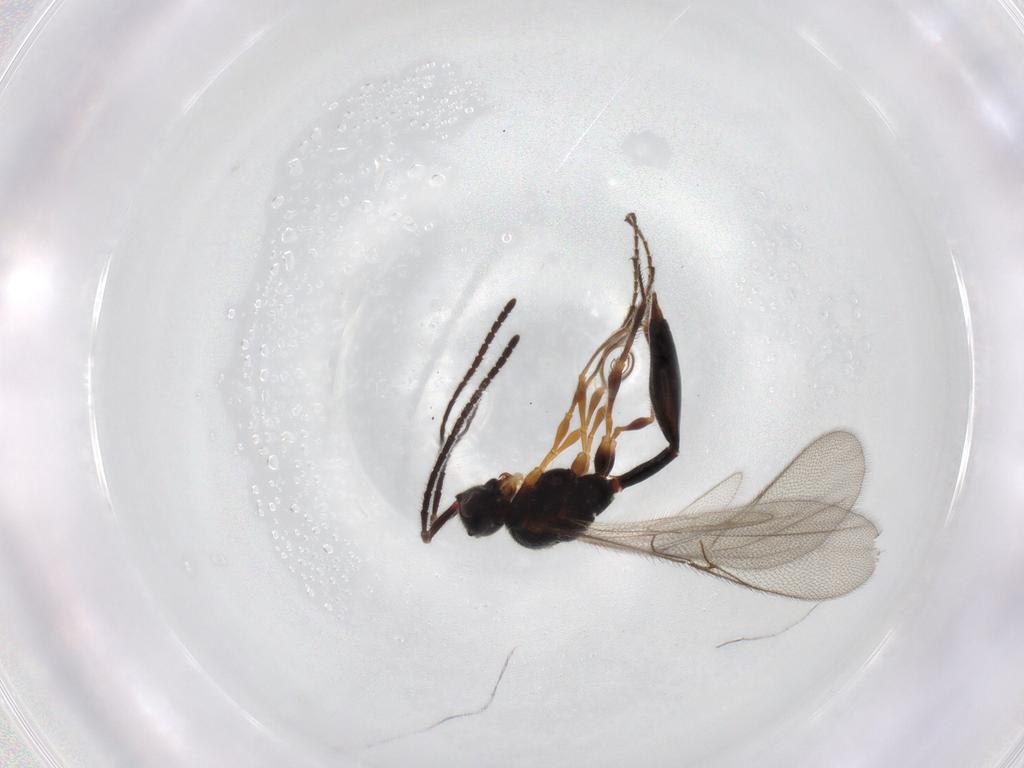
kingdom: Animalia
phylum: Arthropoda
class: Insecta
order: Hymenoptera
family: Diapriidae
